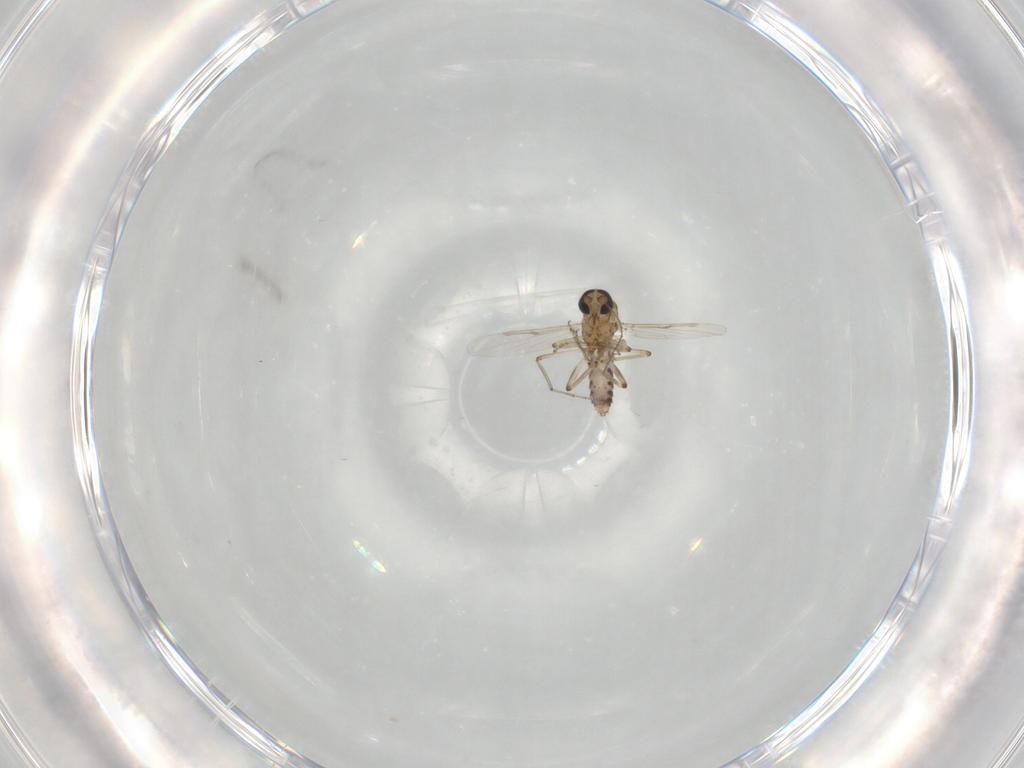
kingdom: Animalia
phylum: Arthropoda
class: Insecta
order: Diptera
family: Ceratopogonidae
